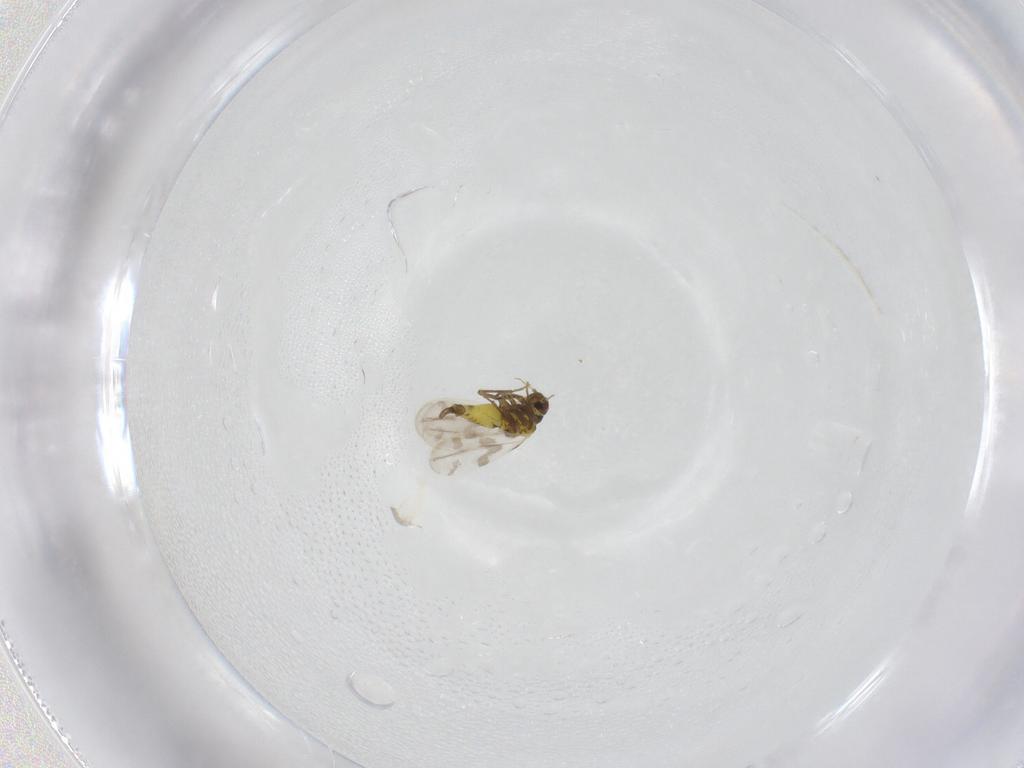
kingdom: Animalia
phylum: Arthropoda
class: Insecta
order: Hemiptera
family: Aleyrodidae
